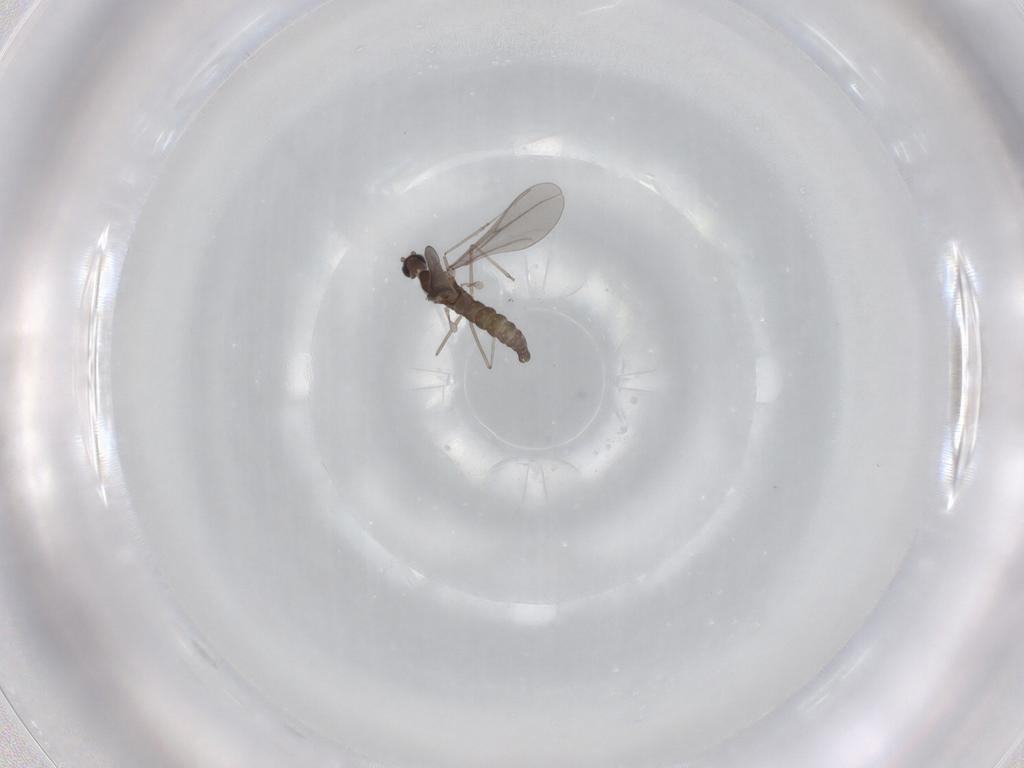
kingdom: Animalia
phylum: Arthropoda
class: Insecta
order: Diptera
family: Cecidomyiidae
